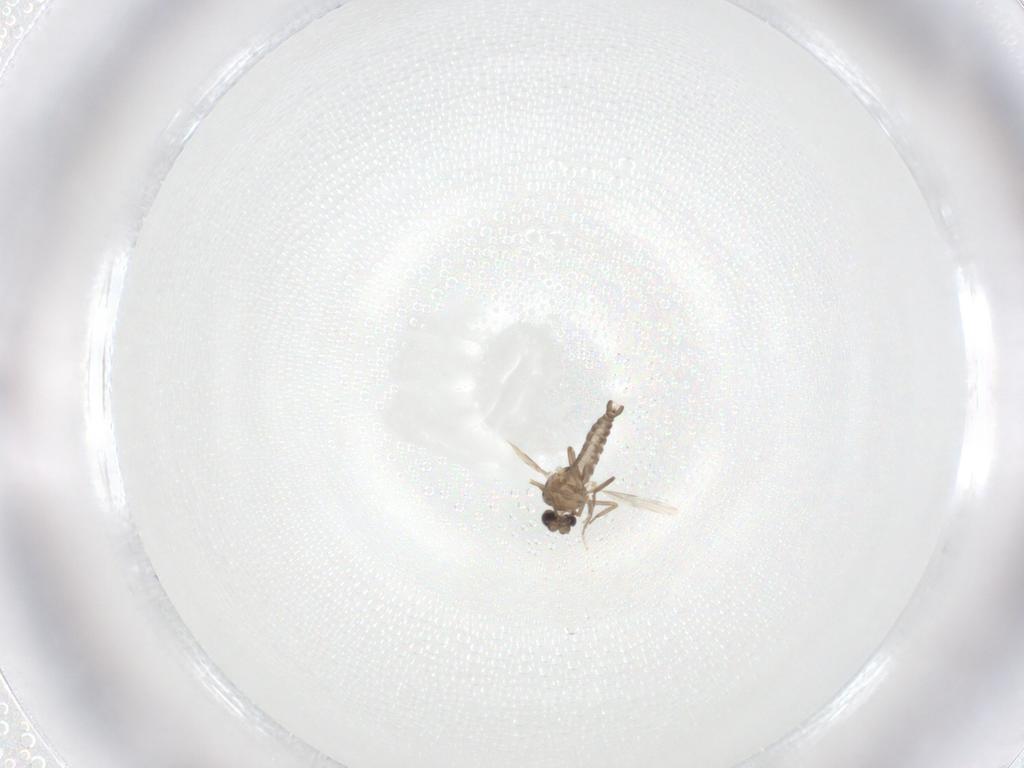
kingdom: Animalia
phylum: Arthropoda
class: Insecta
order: Diptera
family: Ceratopogonidae
